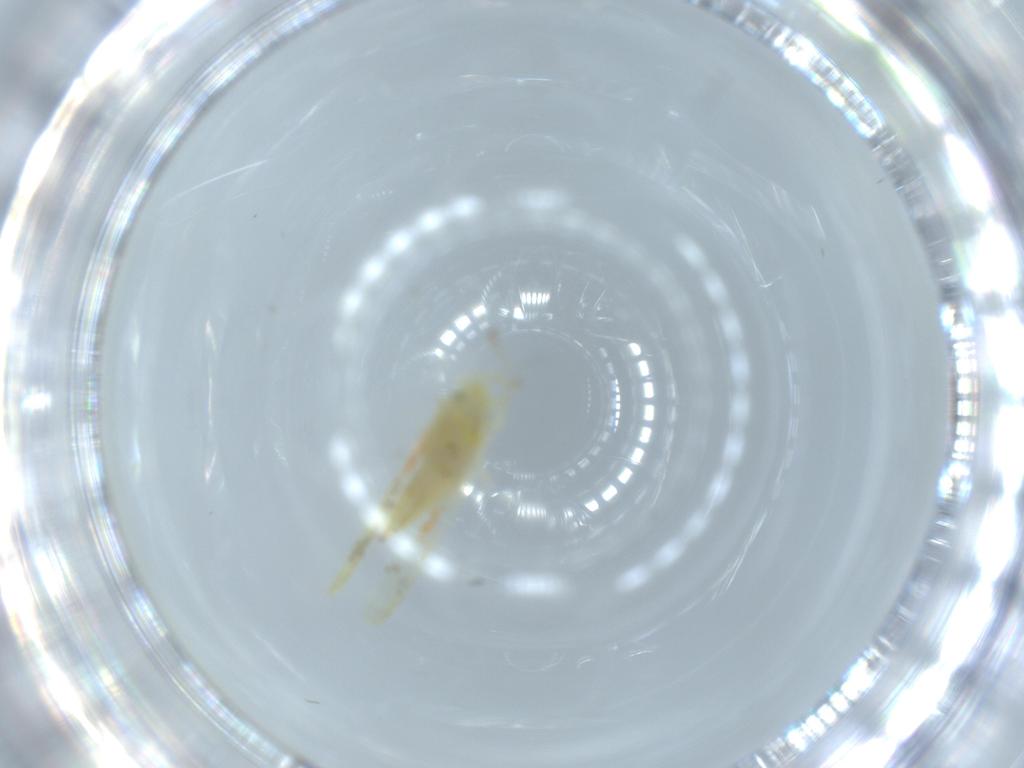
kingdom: Animalia
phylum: Arthropoda
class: Insecta
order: Hemiptera
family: Cicadellidae
